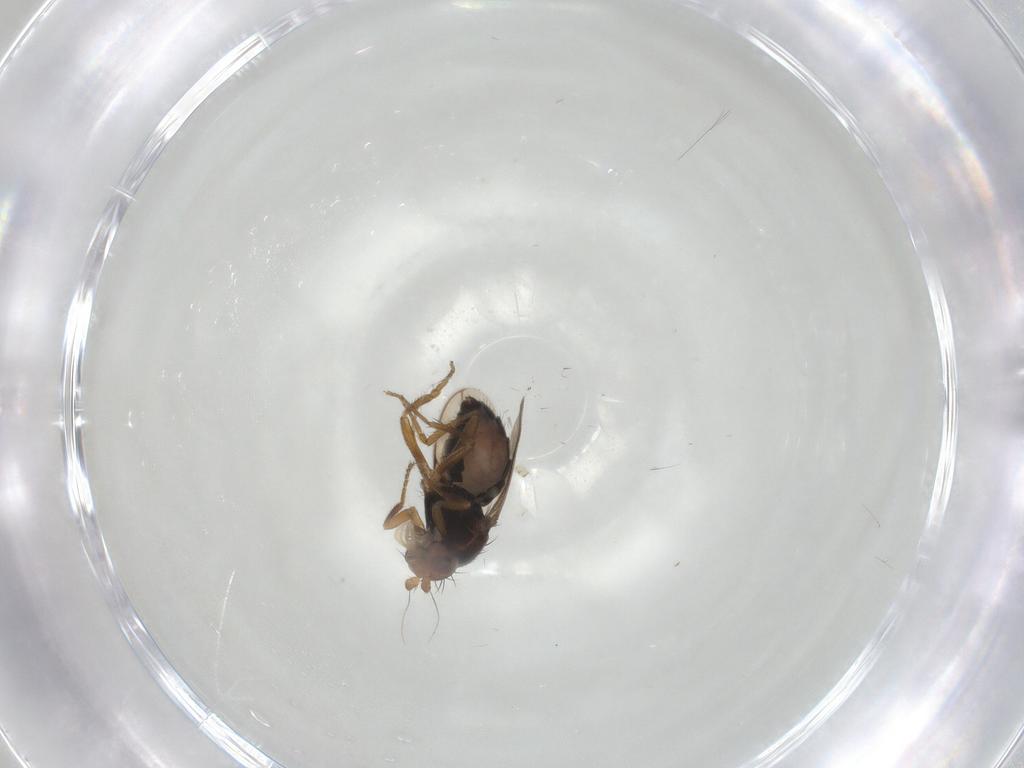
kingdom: Animalia
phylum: Arthropoda
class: Insecta
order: Diptera
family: Sphaeroceridae
